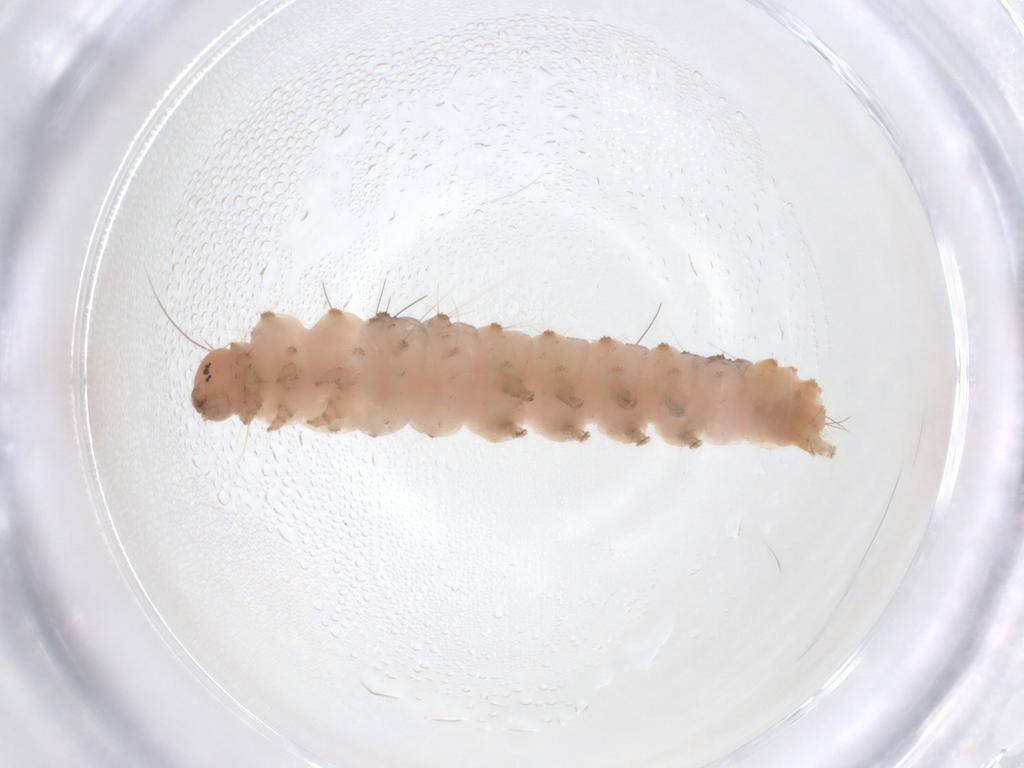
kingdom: Animalia
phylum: Arthropoda
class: Insecta
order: Lepidoptera
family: Erebidae
